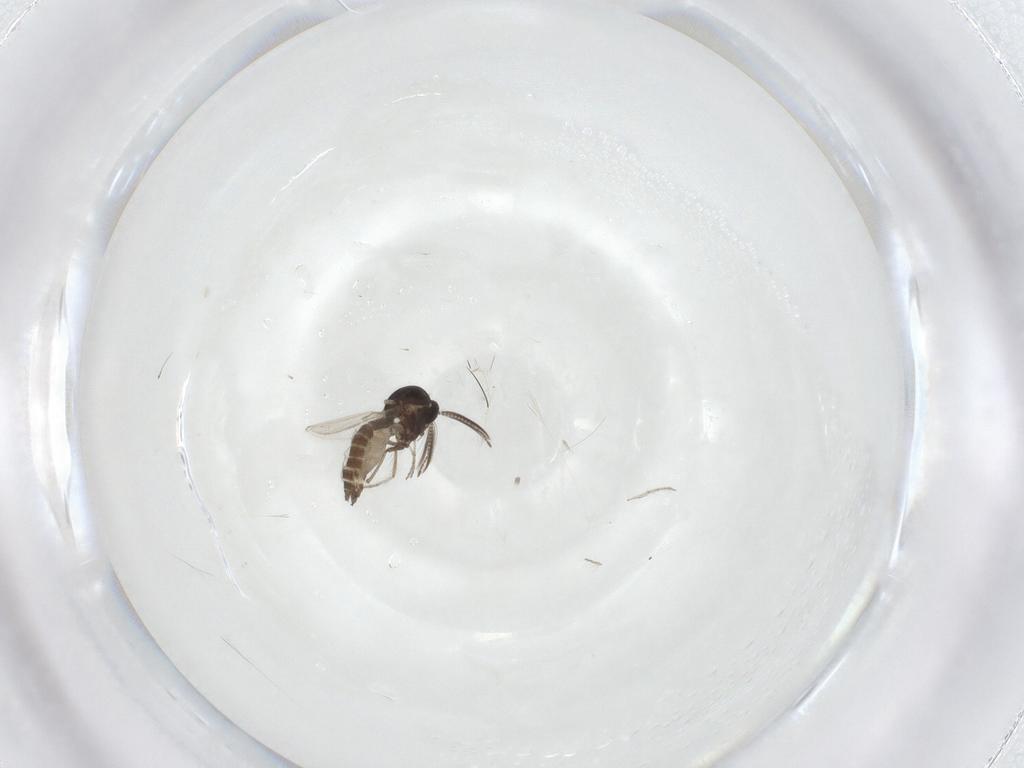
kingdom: Animalia
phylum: Arthropoda
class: Insecta
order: Diptera
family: Ceratopogonidae
